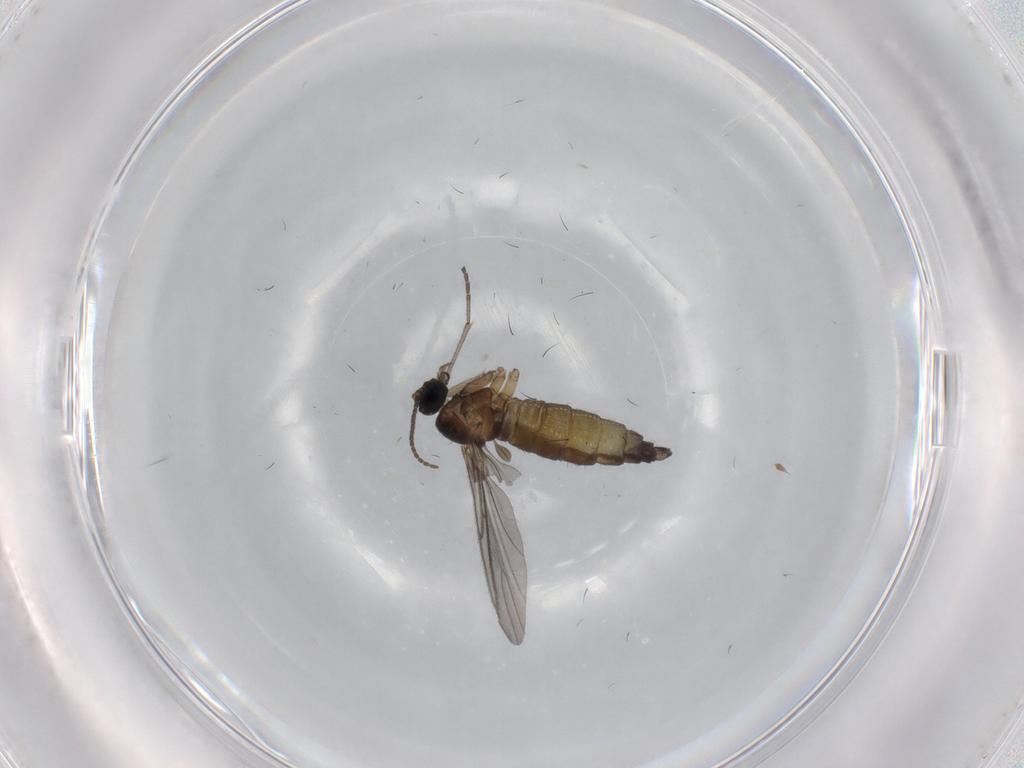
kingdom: Animalia
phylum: Arthropoda
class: Insecta
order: Diptera
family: Sciaridae
